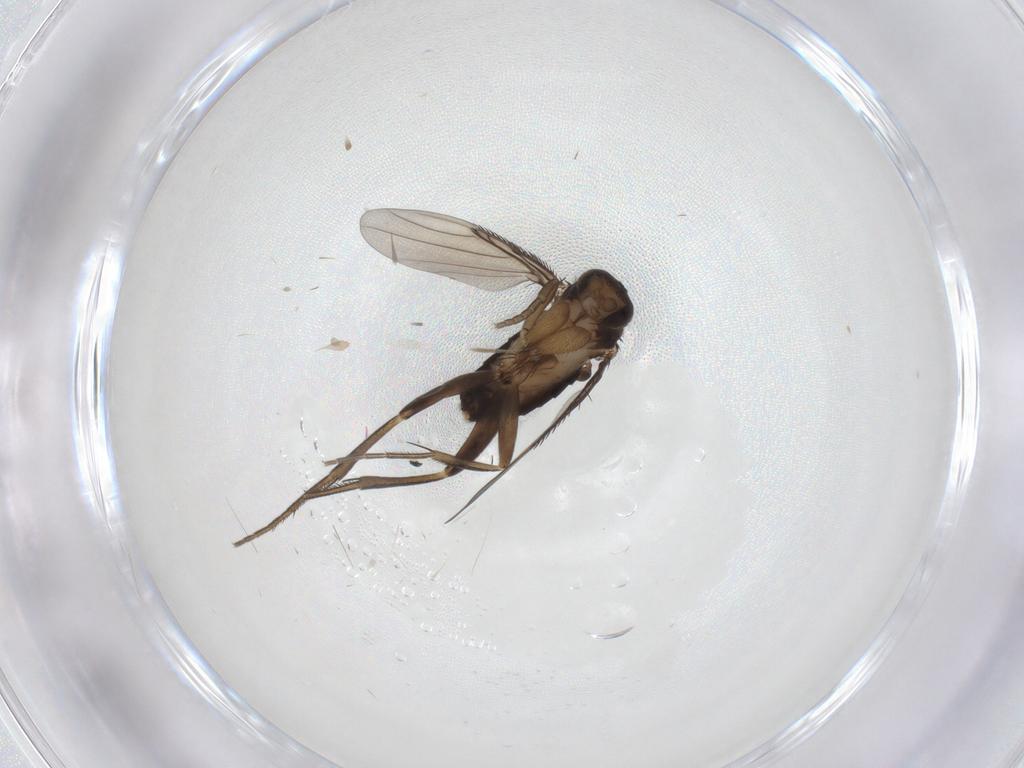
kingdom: Animalia
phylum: Arthropoda
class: Insecta
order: Diptera
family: Phoridae
